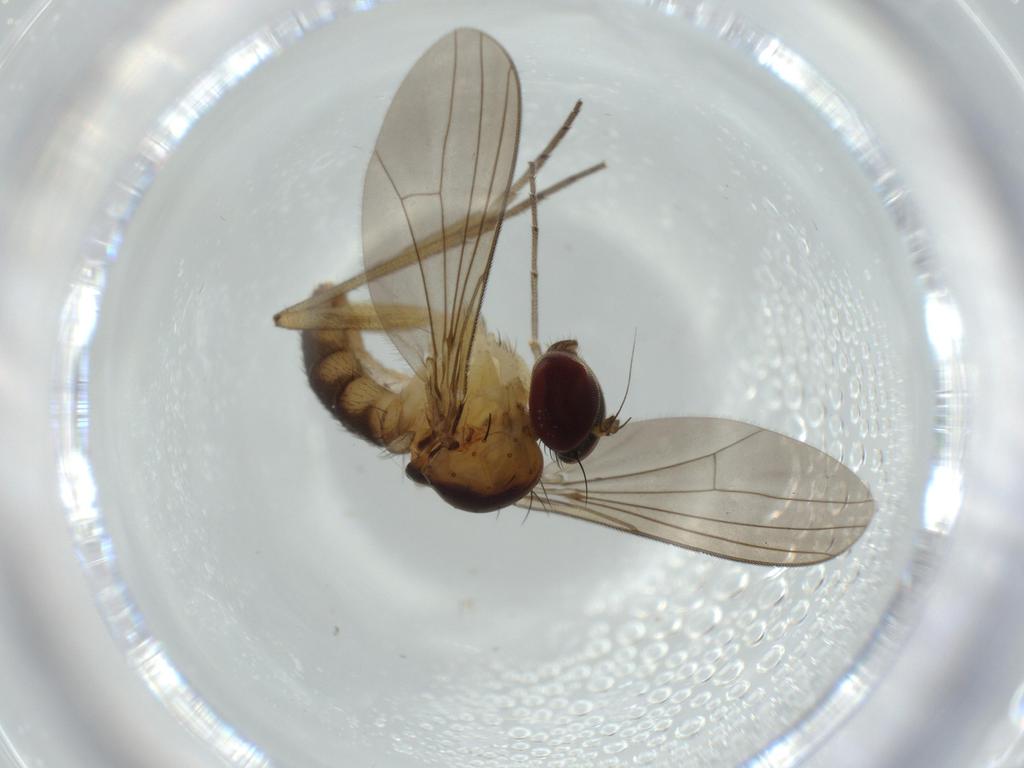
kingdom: Animalia
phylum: Arthropoda
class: Insecta
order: Diptera
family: Dolichopodidae
